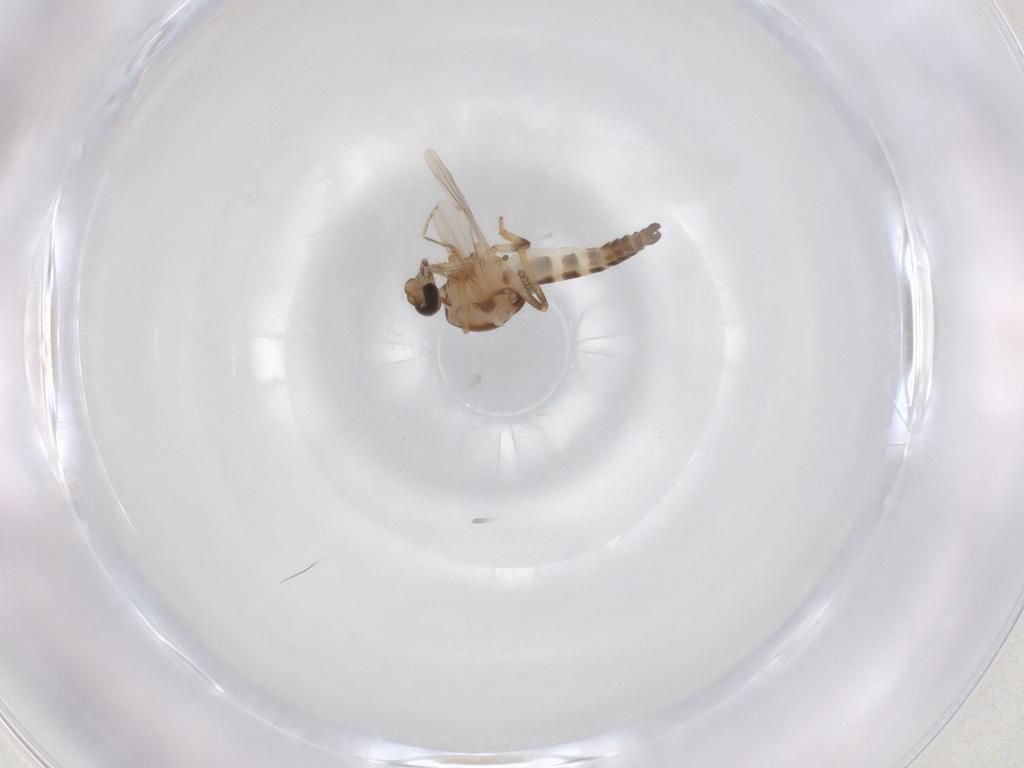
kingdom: Animalia
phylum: Arthropoda
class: Insecta
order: Diptera
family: Ceratopogonidae
